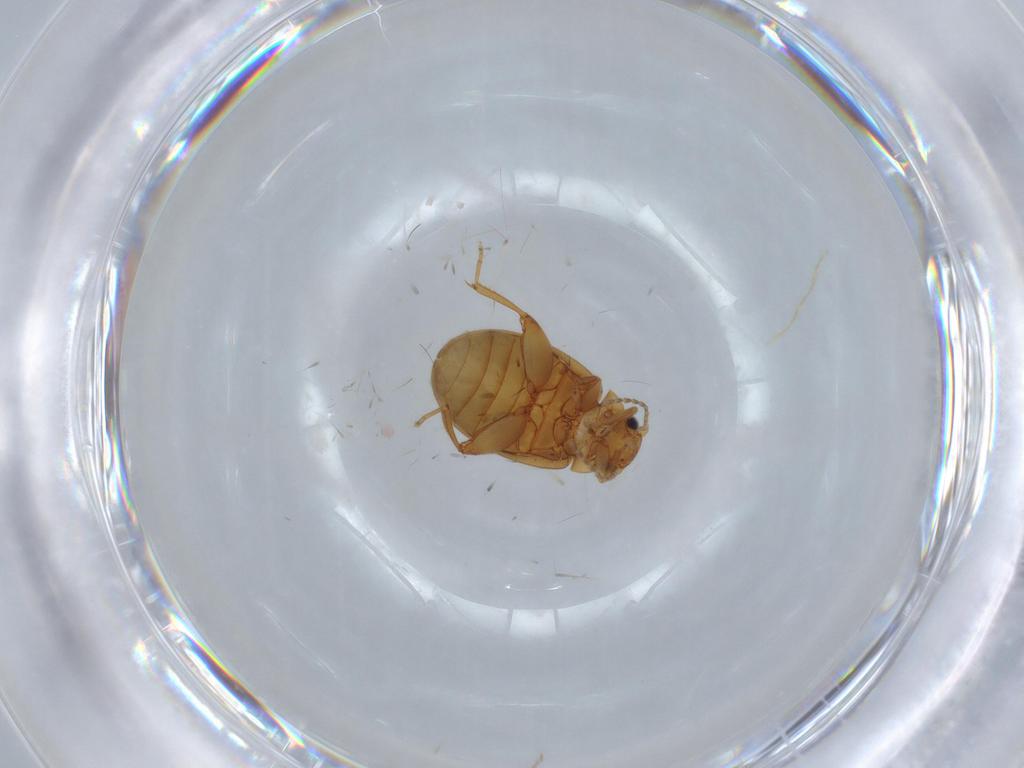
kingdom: Animalia
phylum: Arthropoda
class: Insecta
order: Coleoptera
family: Scirtidae
